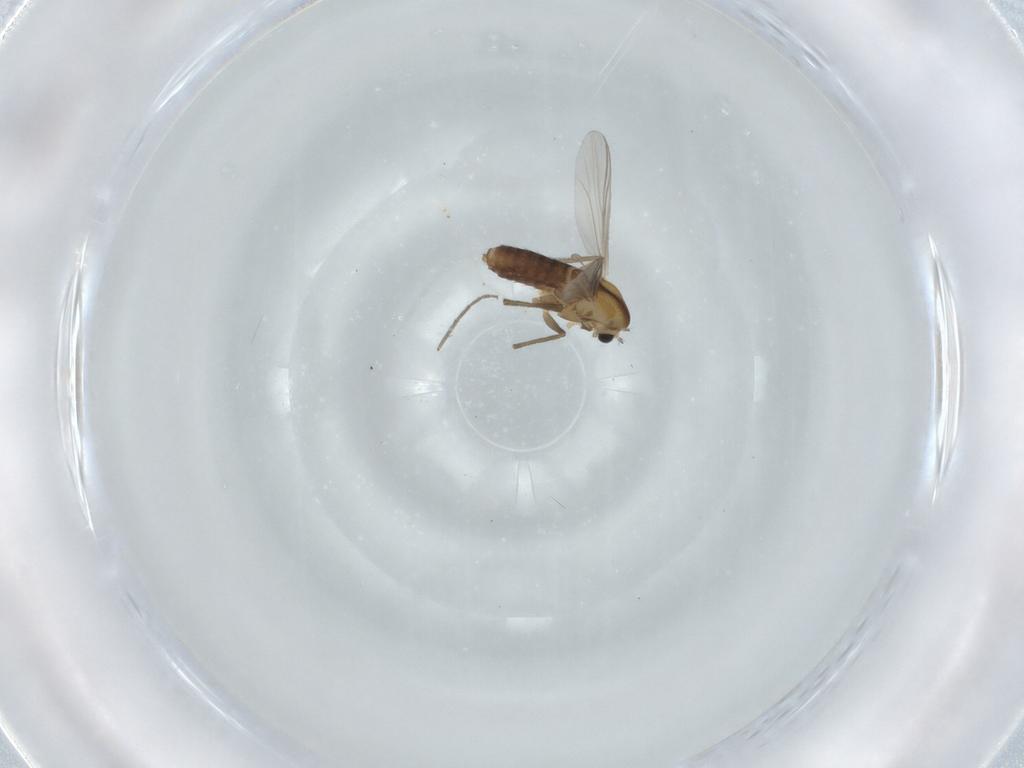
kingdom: Animalia
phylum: Arthropoda
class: Insecta
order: Diptera
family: Chironomidae
